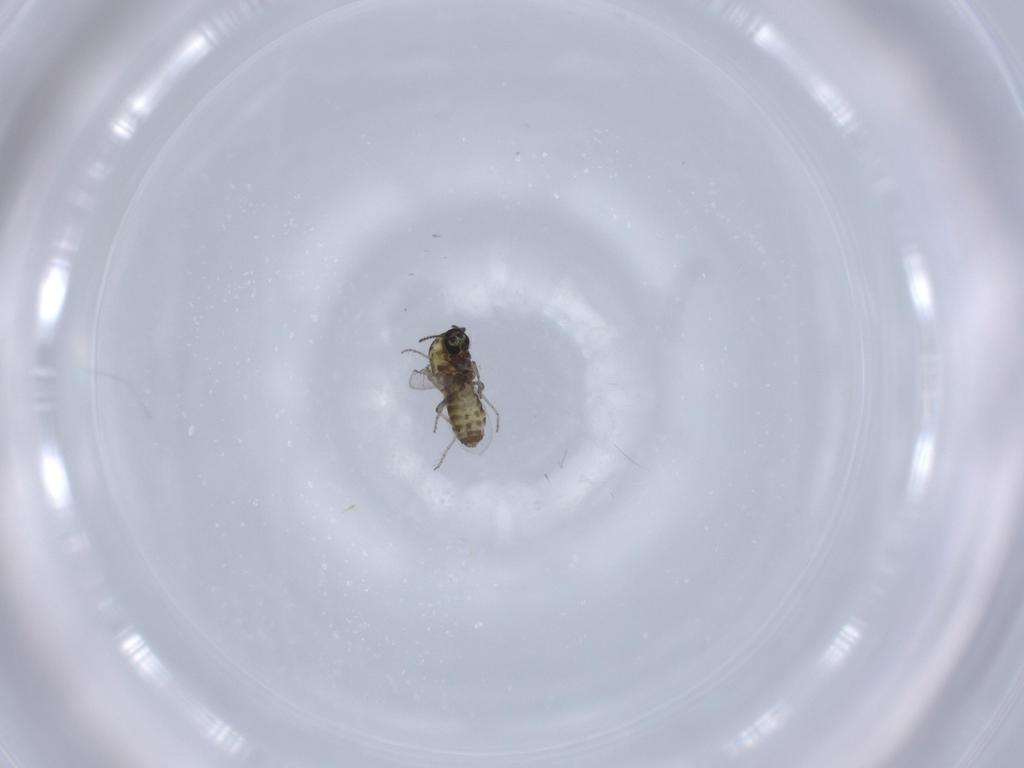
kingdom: Animalia
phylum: Arthropoda
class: Insecta
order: Diptera
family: Ceratopogonidae
